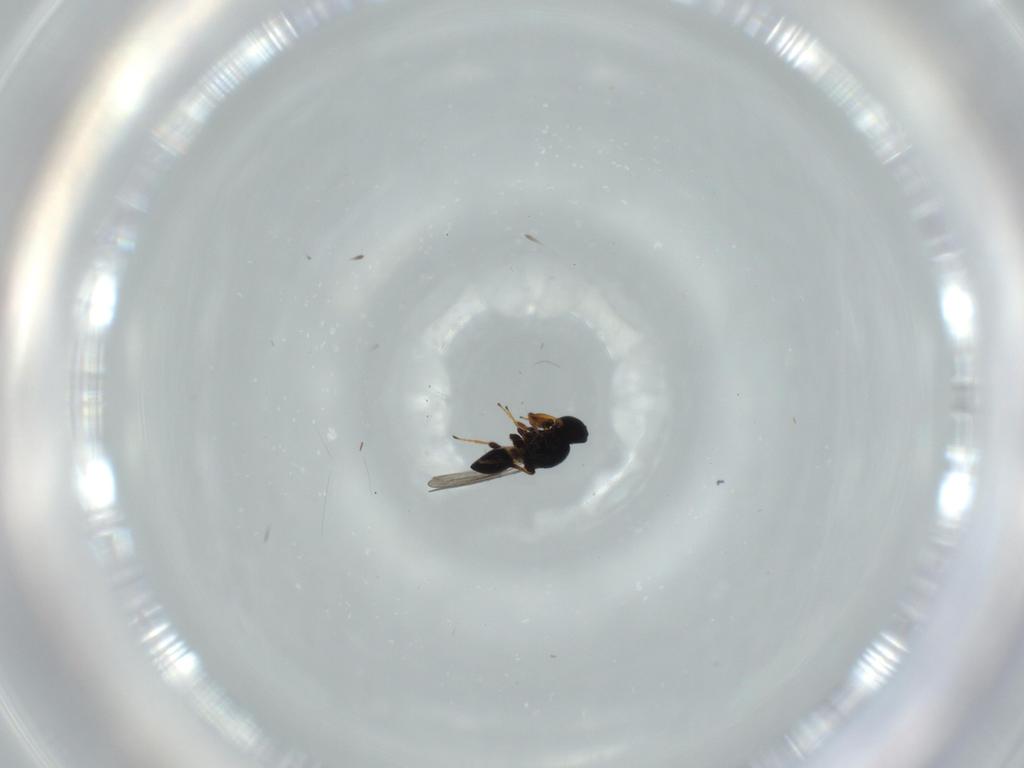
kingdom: Animalia
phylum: Arthropoda
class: Insecta
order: Hymenoptera
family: Platygastridae
